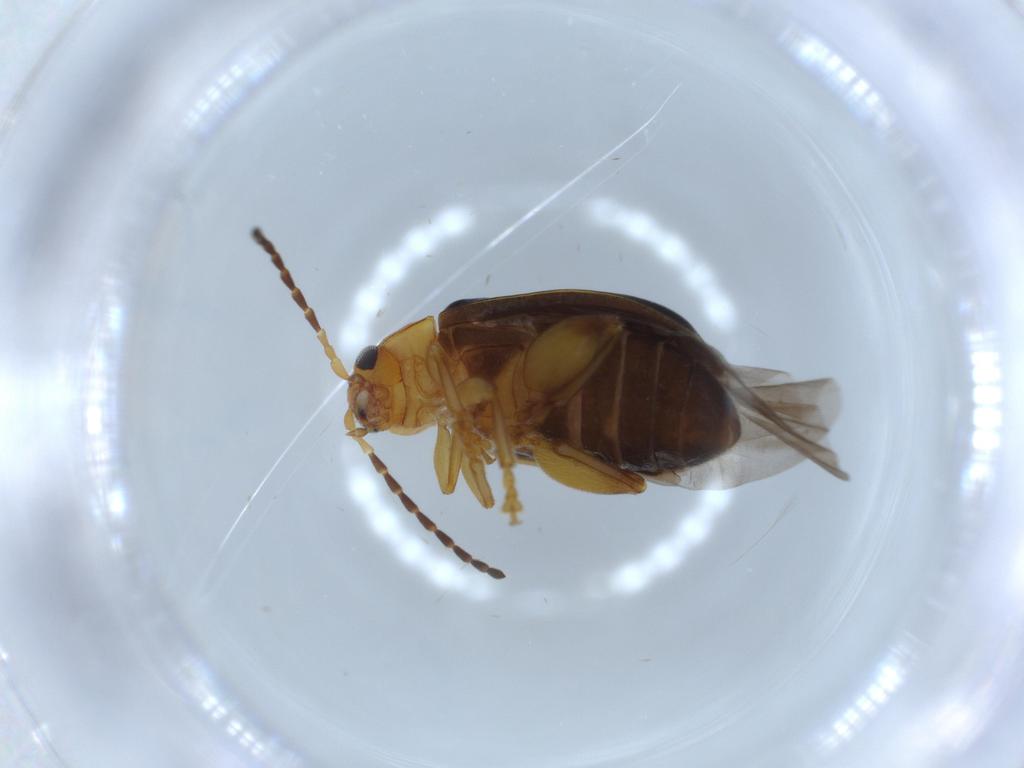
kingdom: Animalia
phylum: Arthropoda
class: Insecta
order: Coleoptera
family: Chrysomelidae
